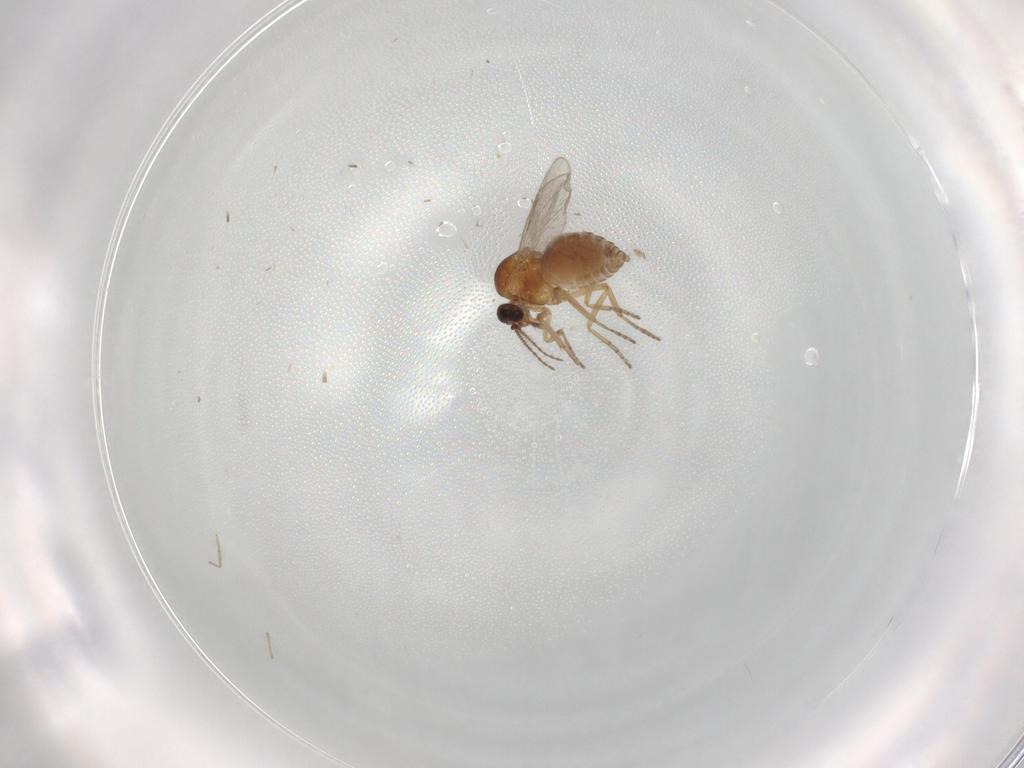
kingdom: Animalia
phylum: Arthropoda
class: Insecta
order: Diptera
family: Ceratopogonidae
